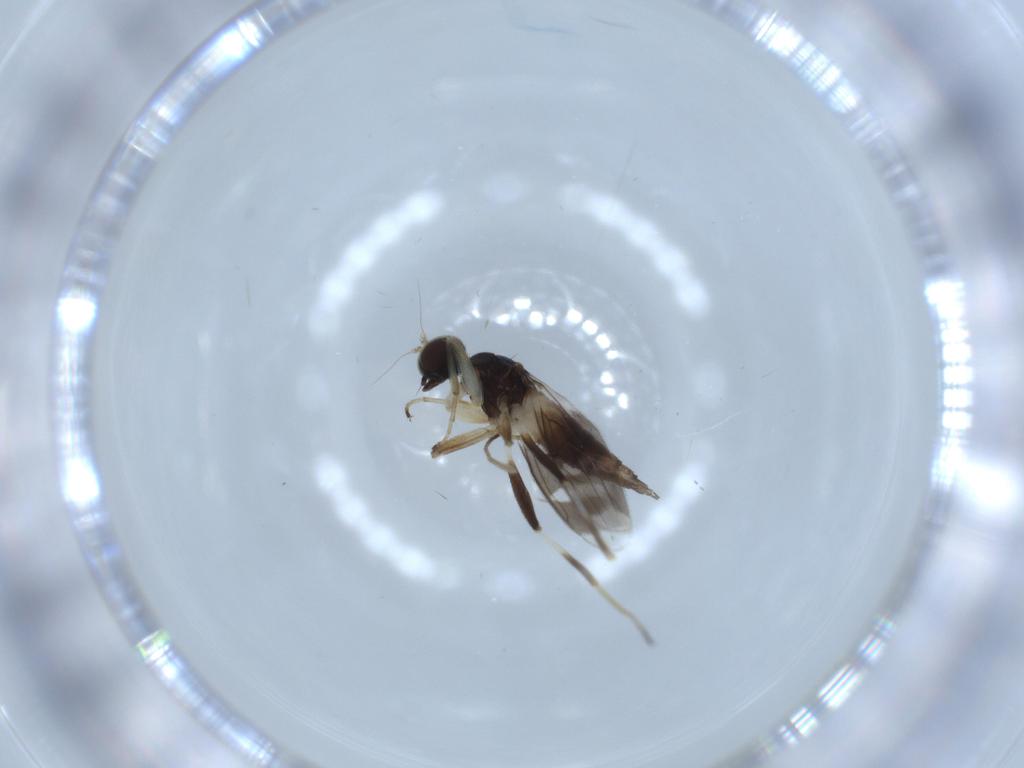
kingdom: Animalia
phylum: Arthropoda
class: Insecta
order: Diptera
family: Hybotidae
